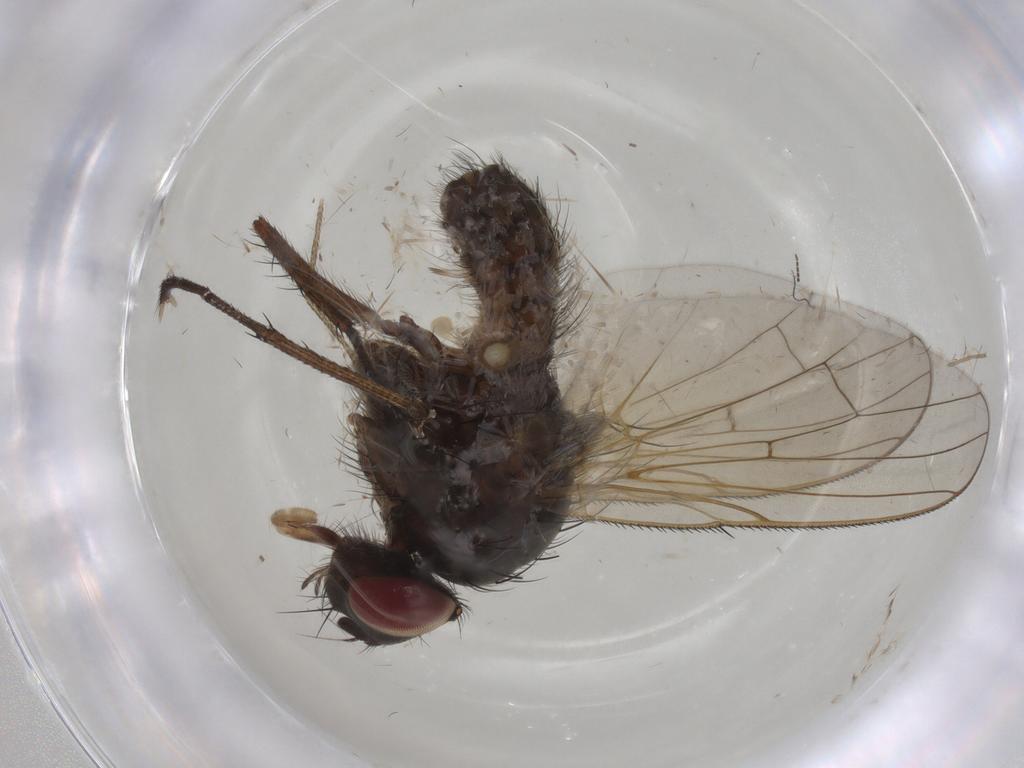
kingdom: Animalia
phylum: Arthropoda
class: Insecta
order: Diptera
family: Anthomyiidae
